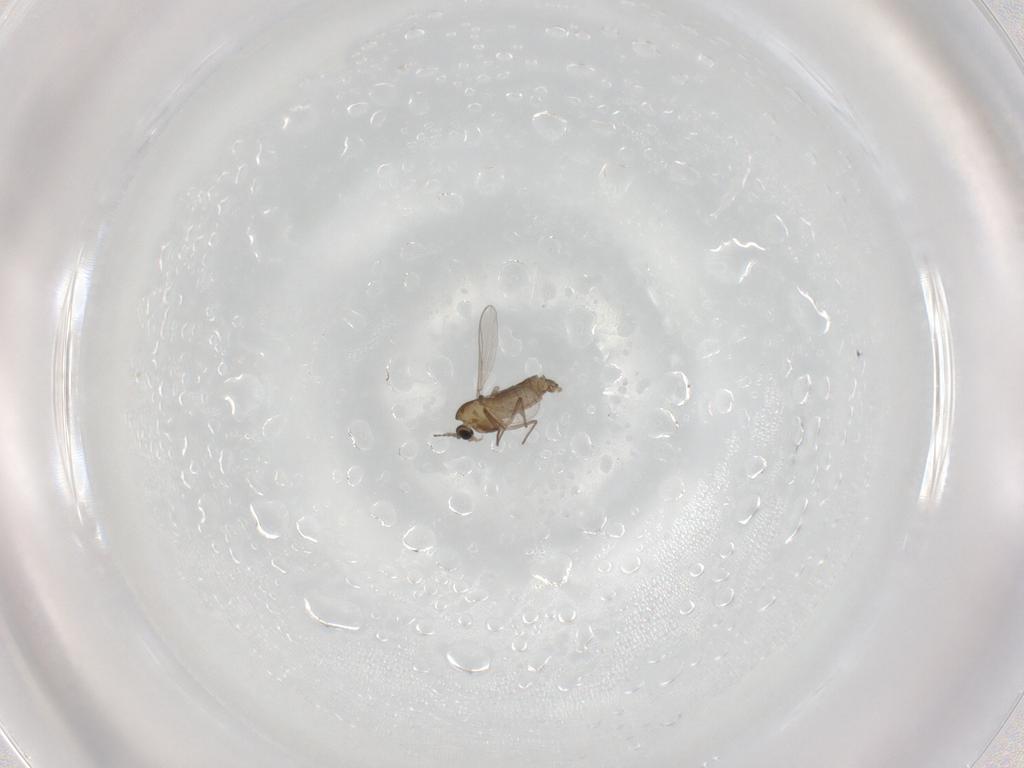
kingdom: Animalia
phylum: Arthropoda
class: Insecta
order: Diptera
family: Chironomidae
